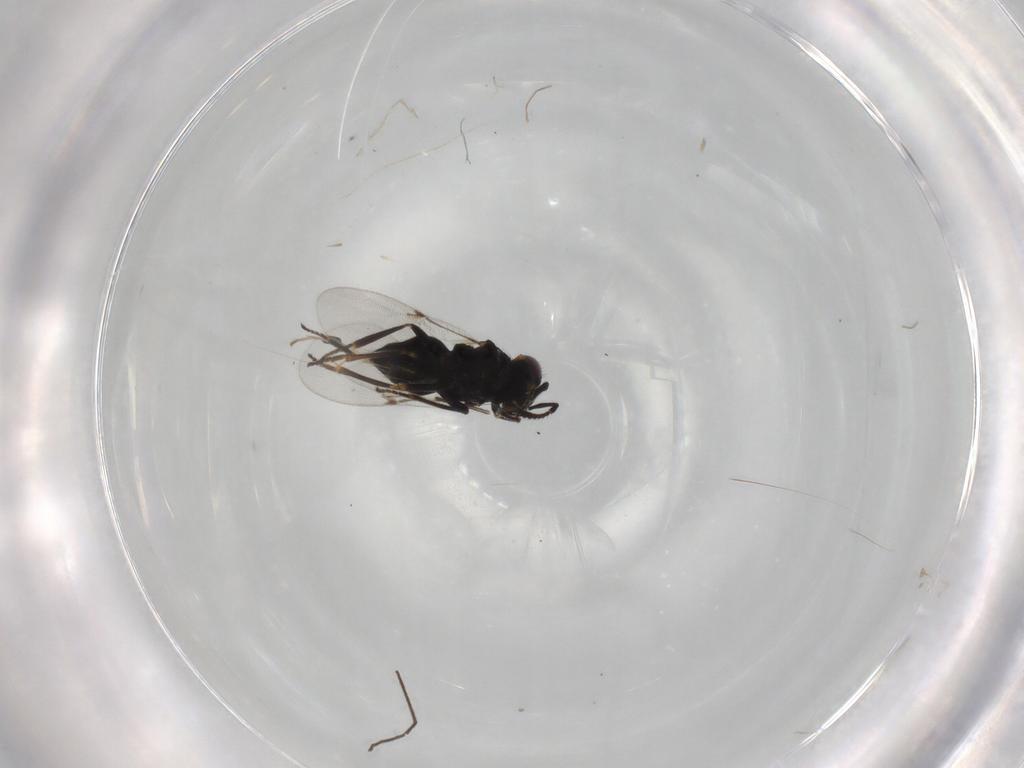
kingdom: Animalia
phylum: Arthropoda
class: Insecta
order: Hymenoptera
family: Encyrtidae
